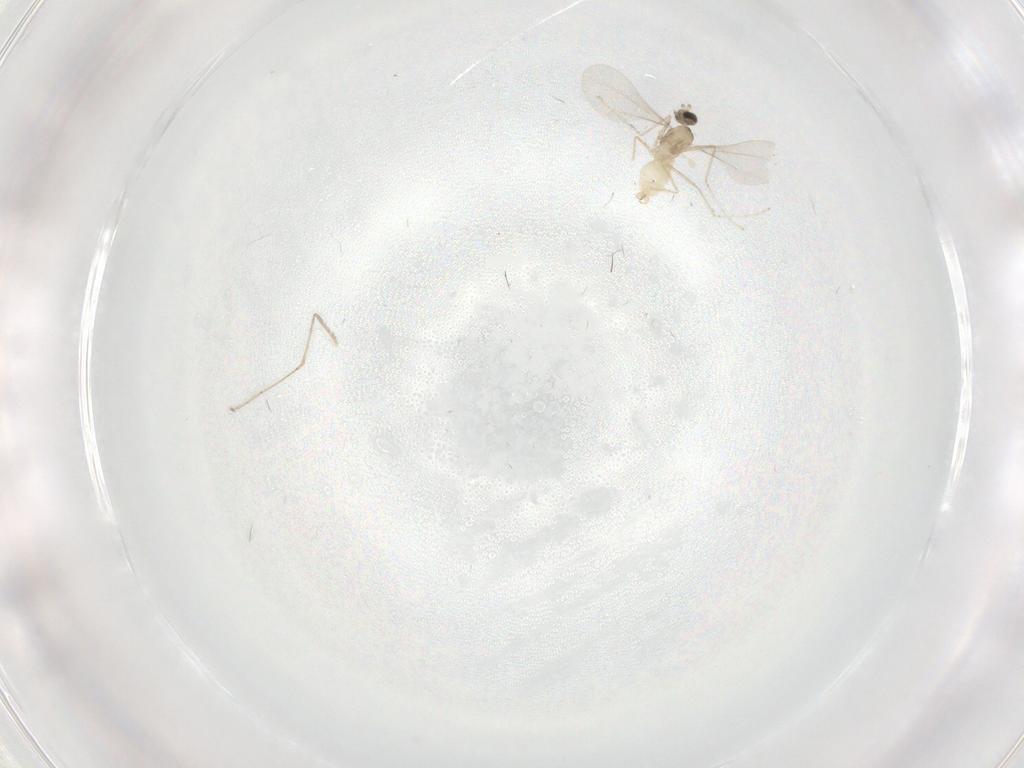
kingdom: Animalia
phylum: Arthropoda
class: Insecta
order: Diptera
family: Cecidomyiidae
